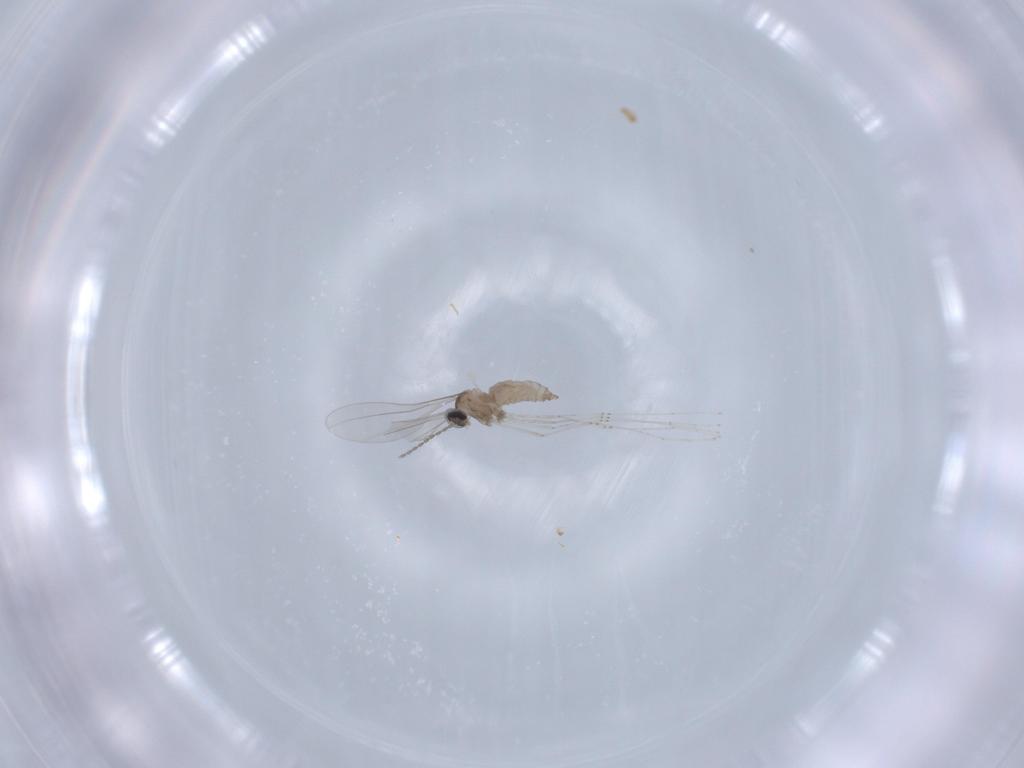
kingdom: Animalia
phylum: Arthropoda
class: Insecta
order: Diptera
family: Cecidomyiidae
